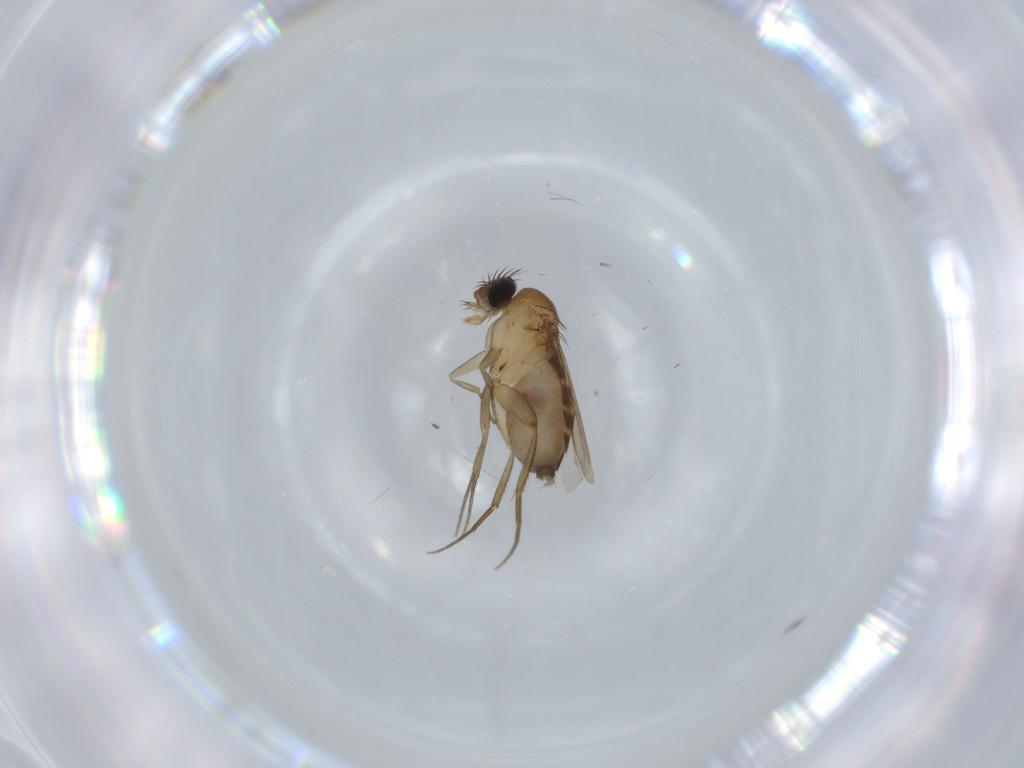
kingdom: Animalia
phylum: Arthropoda
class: Insecta
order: Diptera
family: Phoridae
